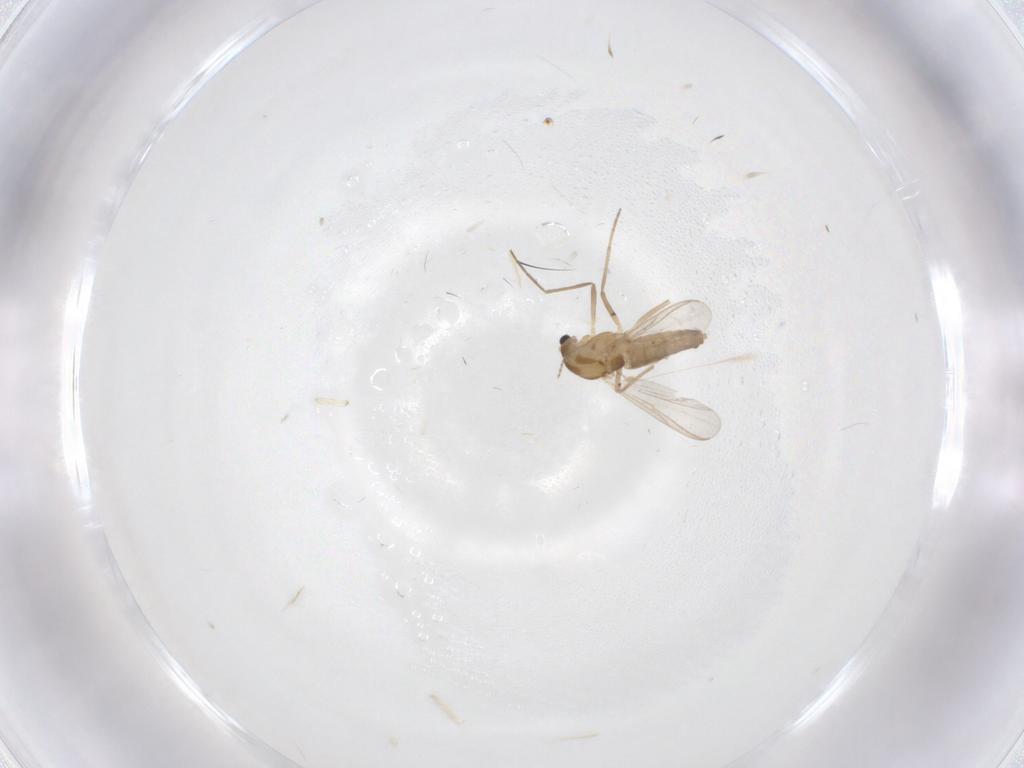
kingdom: Animalia
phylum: Arthropoda
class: Insecta
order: Diptera
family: Chironomidae
